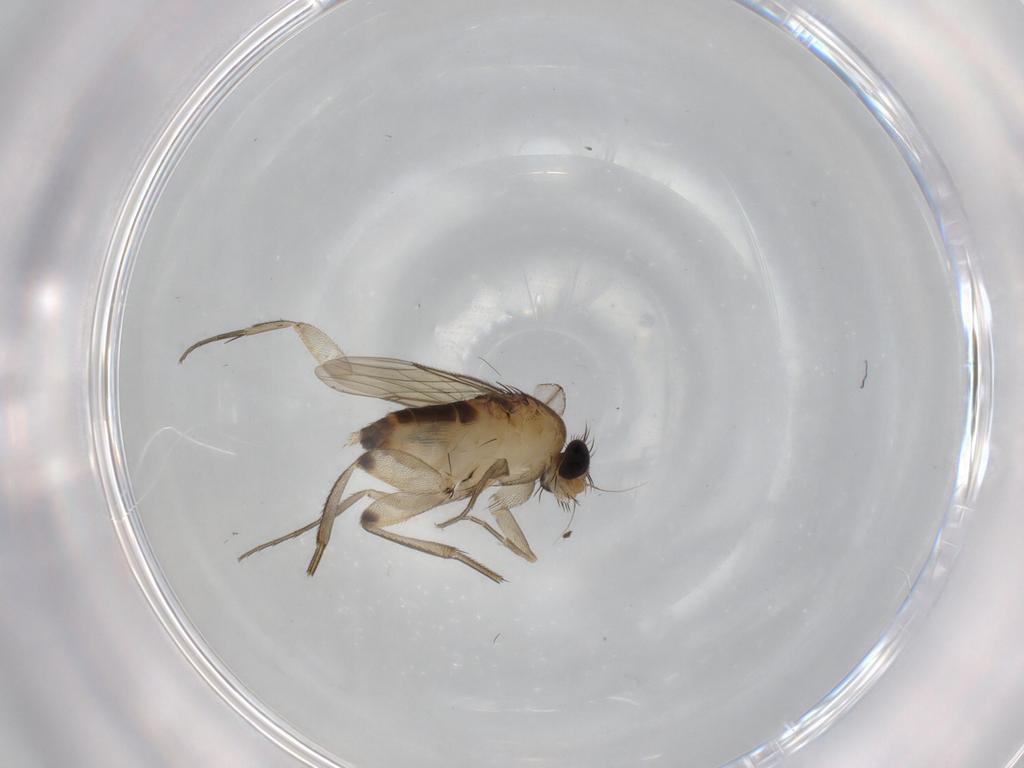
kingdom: Animalia
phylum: Arthropoda
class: Insecta
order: Diptera
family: Phoridae
